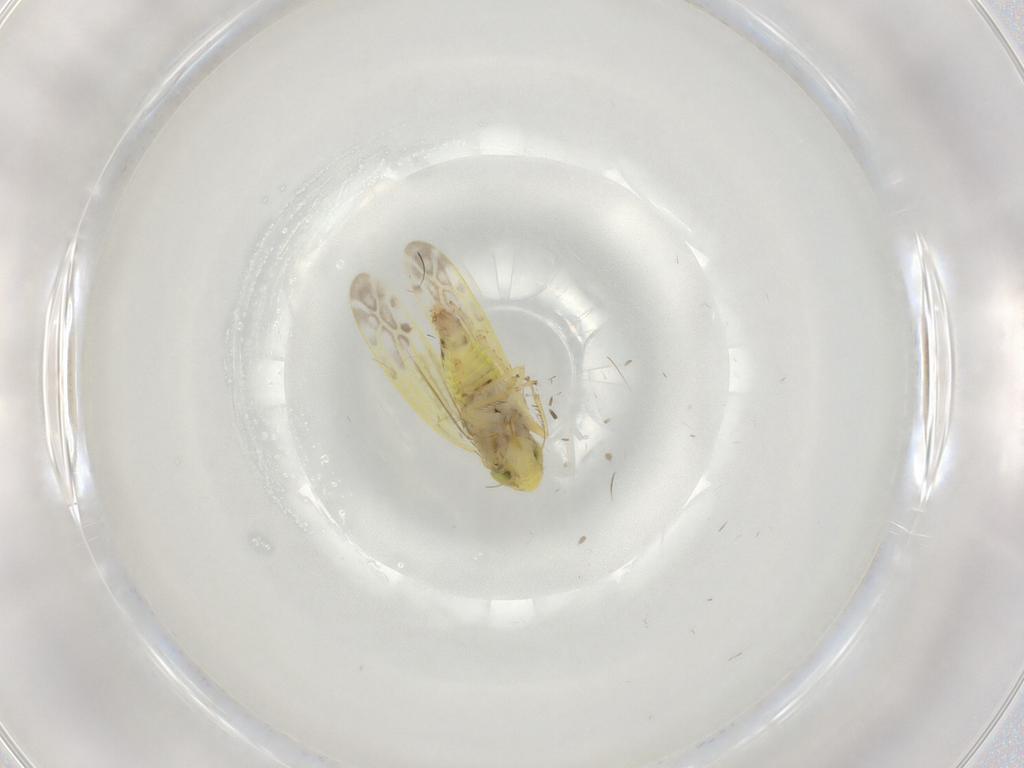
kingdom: Animalia
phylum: Arthropoda
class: Insecta
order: Hemiptera
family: Cicadellidae
